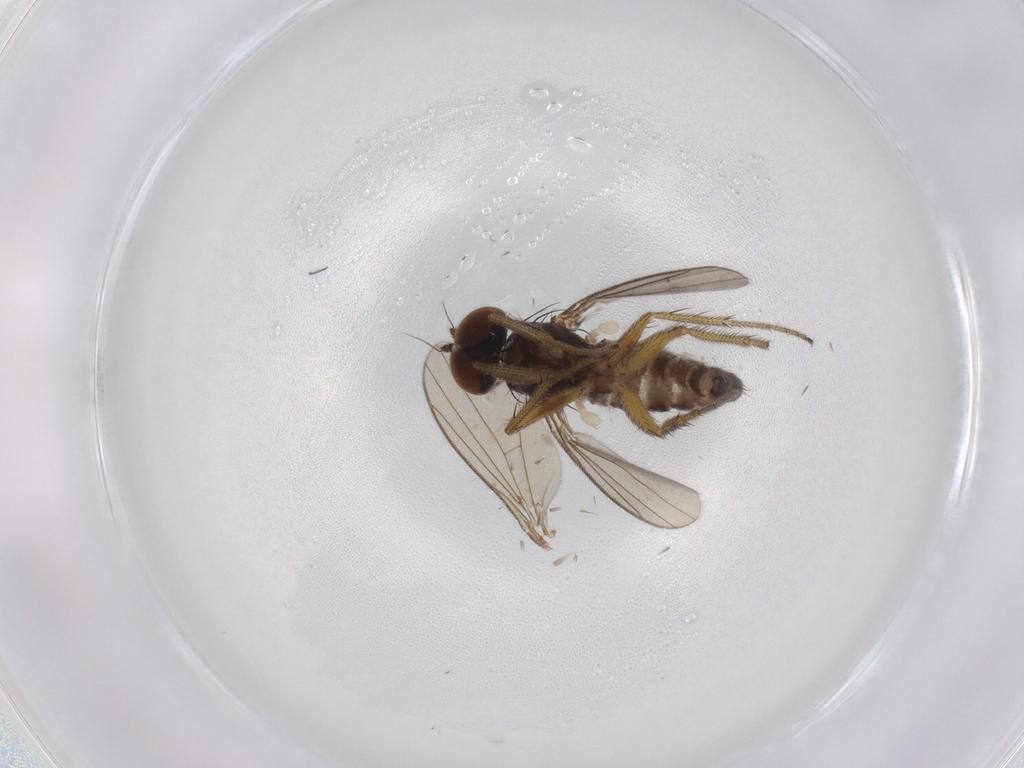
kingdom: Animalia
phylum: Arthropoda
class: Insecta
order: Diptera
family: Dolichopodidae
